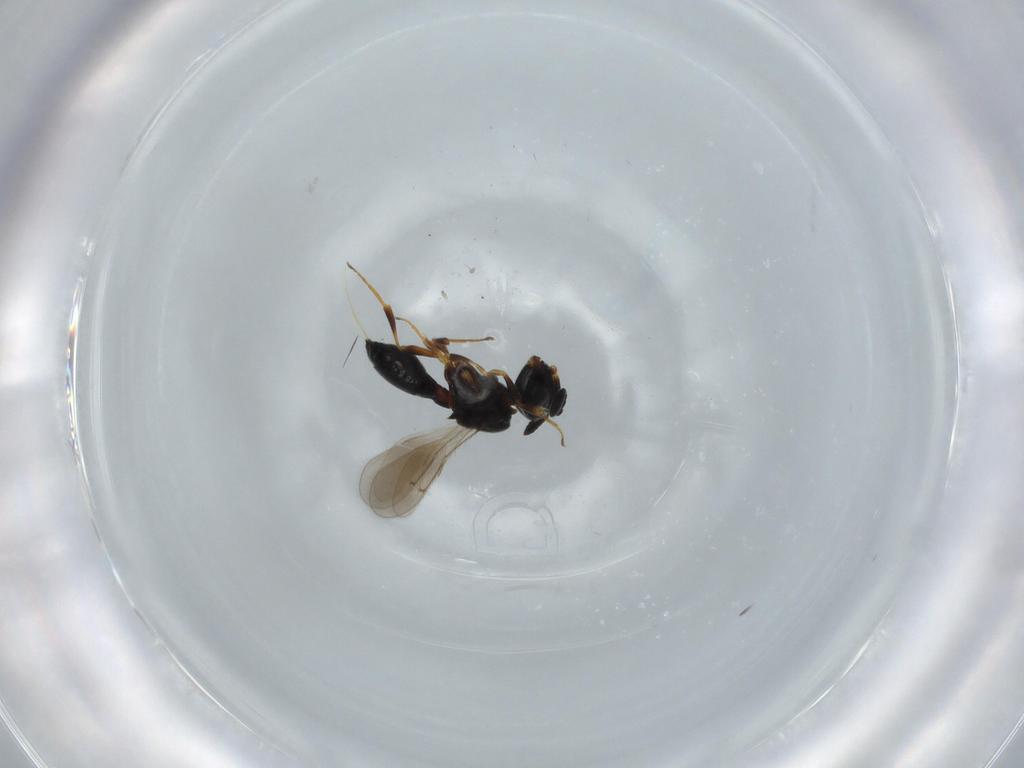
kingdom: Animalia
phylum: Arthropoda
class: Insecta
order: Hymenoptera
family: Scelionidae
